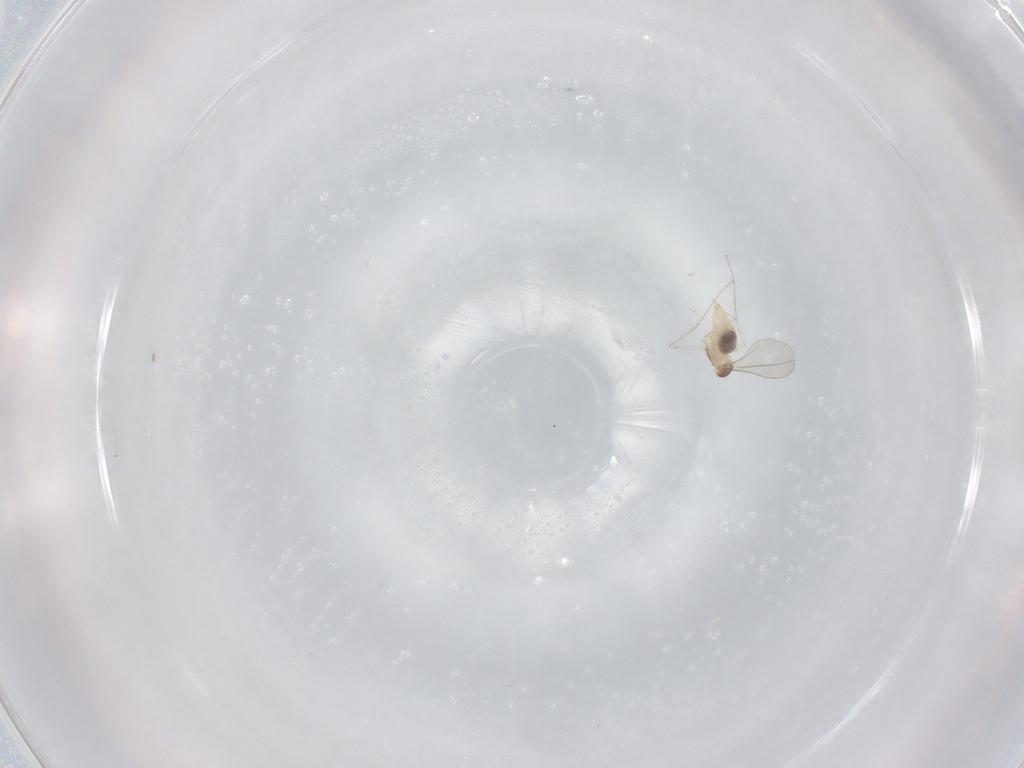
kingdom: Animalia
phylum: Arthropoda
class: Insecta
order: Diptera
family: Cecidomyiidae
